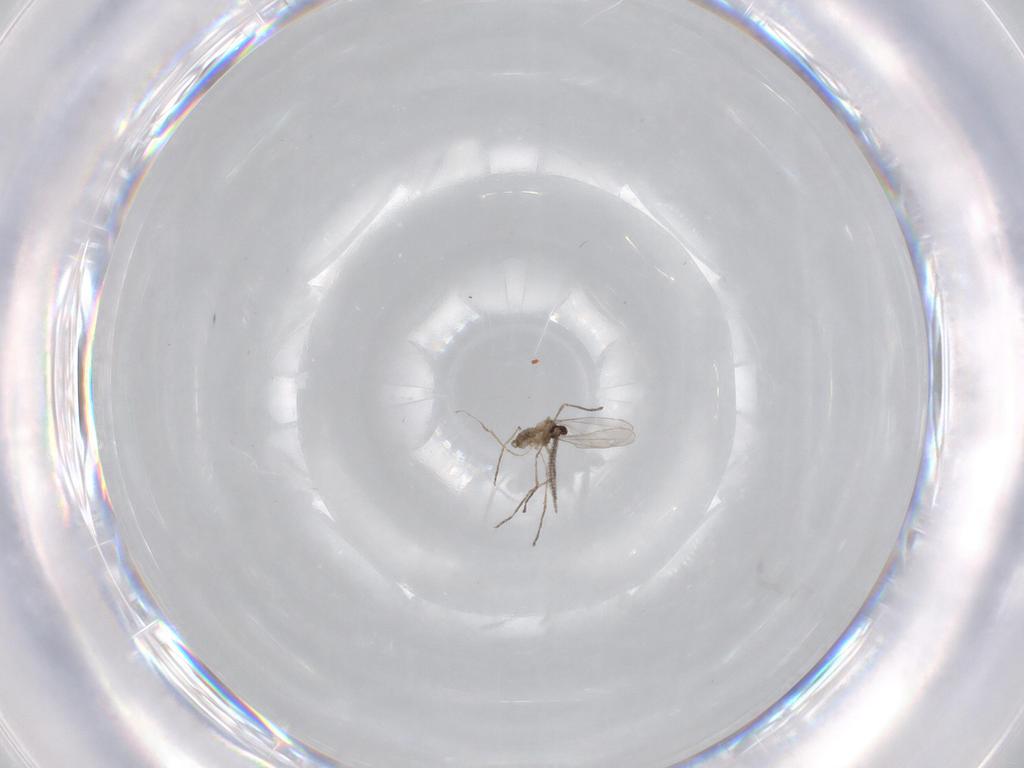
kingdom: Animalia
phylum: Arthropoda
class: Insecta
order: Diptera
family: Cecidomyiidae
